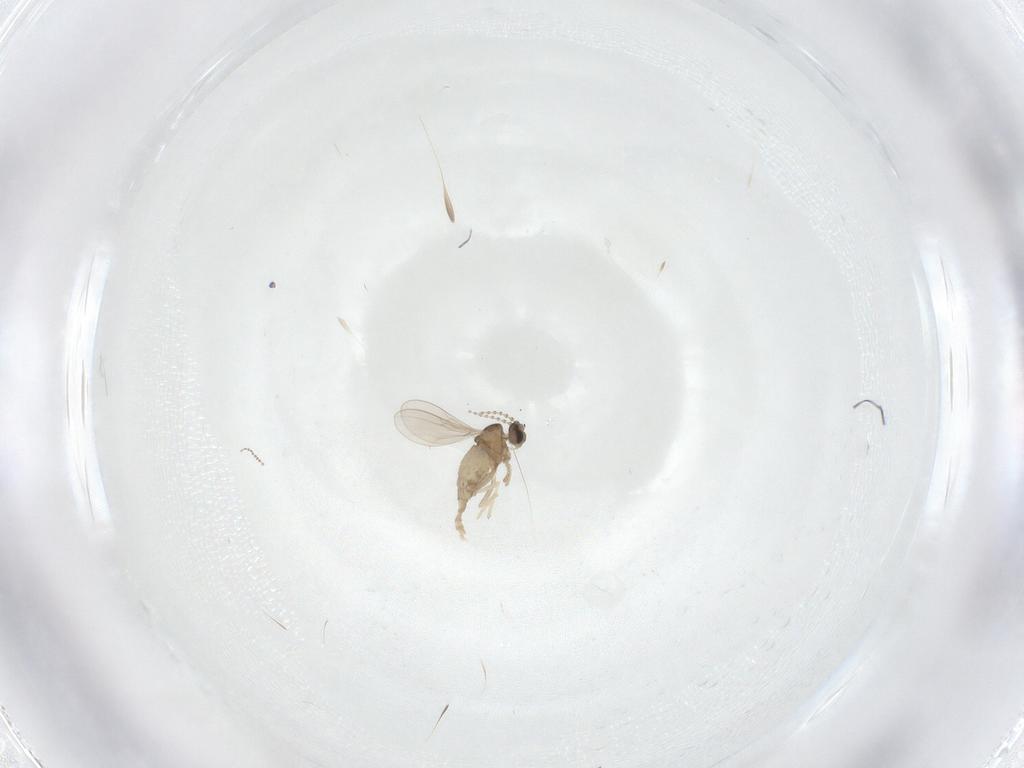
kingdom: Animalia
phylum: Arthropoda
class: Insecta
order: Diptera
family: Cecidomyiidae
